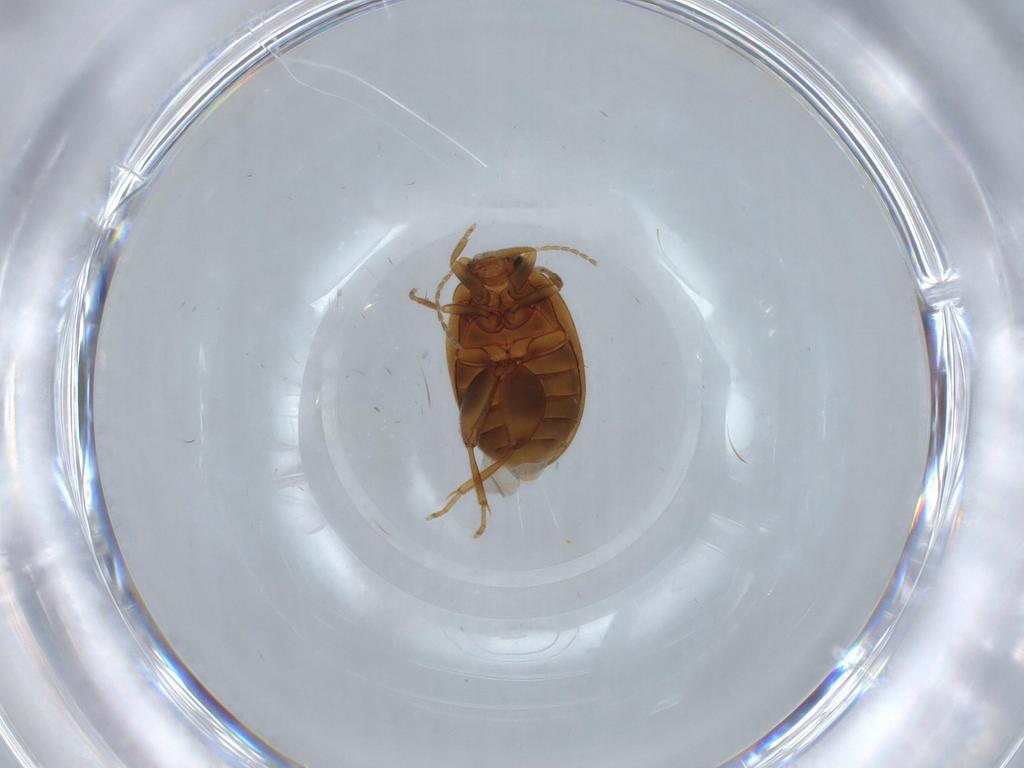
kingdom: Animalia
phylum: Arthropoda
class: Insecta
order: Coleoptera
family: Scirtidae
